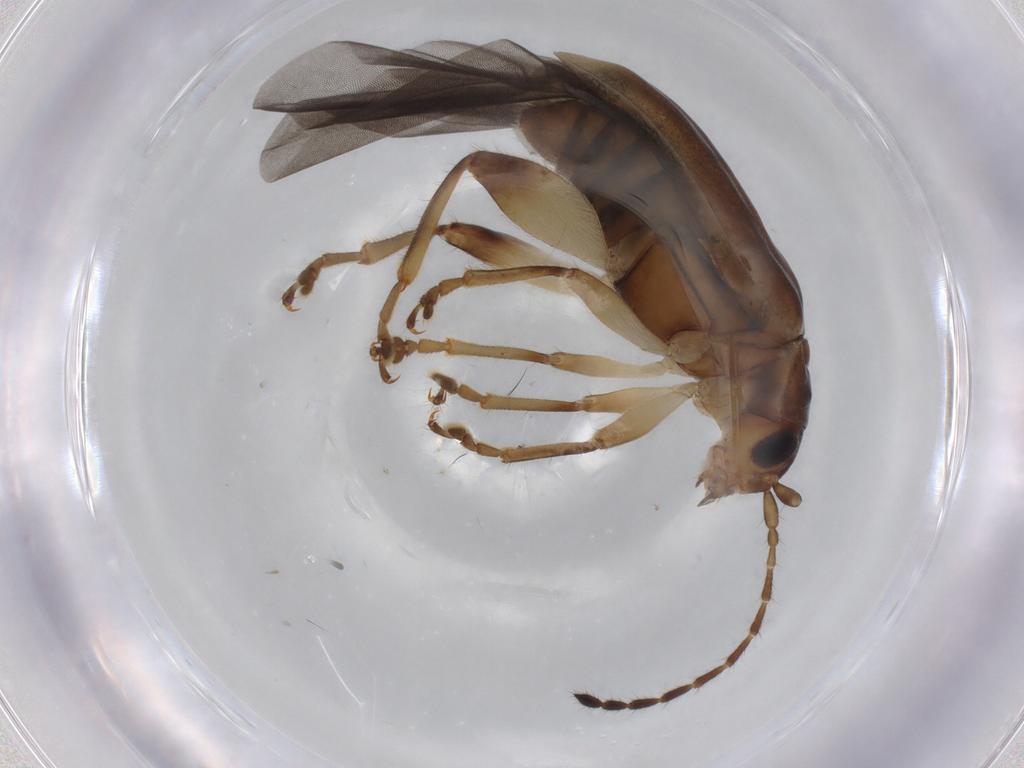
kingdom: Animalia
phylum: Arthropoda
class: Insecta
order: Coleoptera
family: Chrysomelidae
